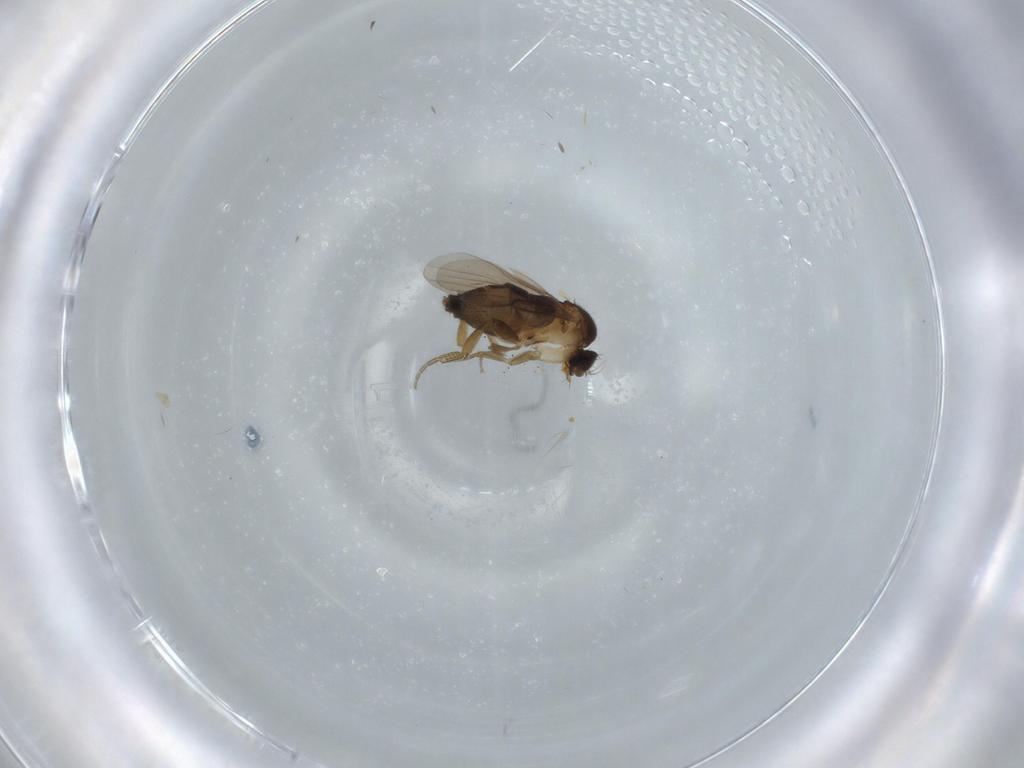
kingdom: Animalia
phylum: Arthropoda
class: Insecta
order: Diptera
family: Phoridae
